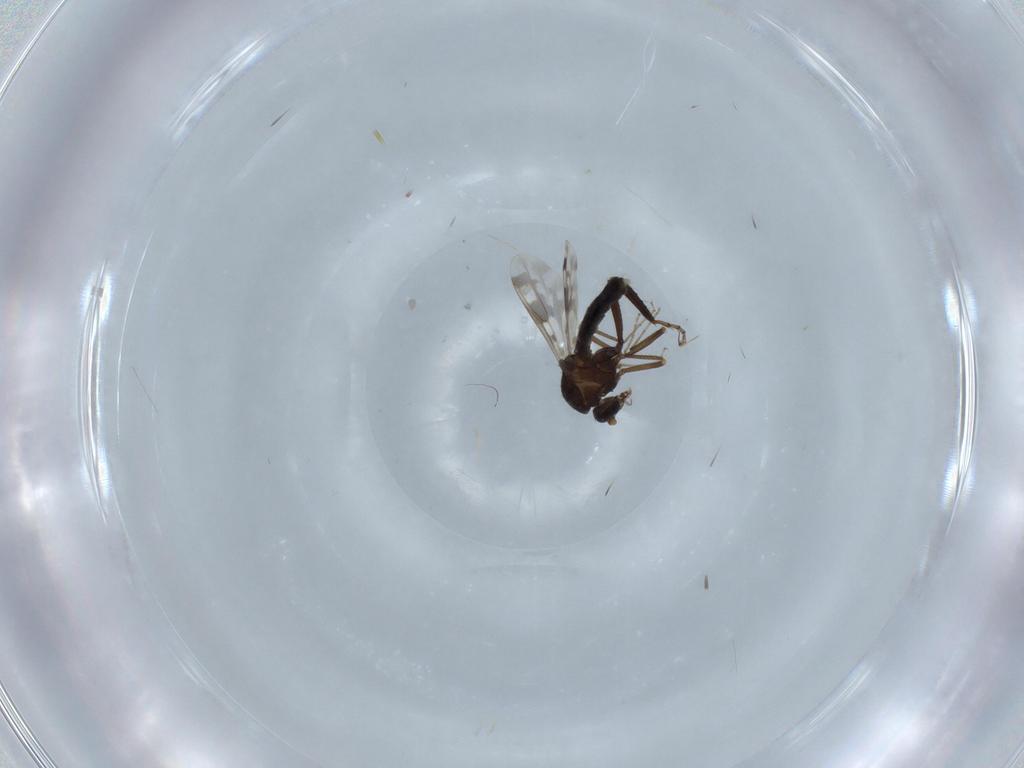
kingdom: Animalia
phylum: Arthropoda
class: Insecta
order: Diptera
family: Ceratopogonidae
